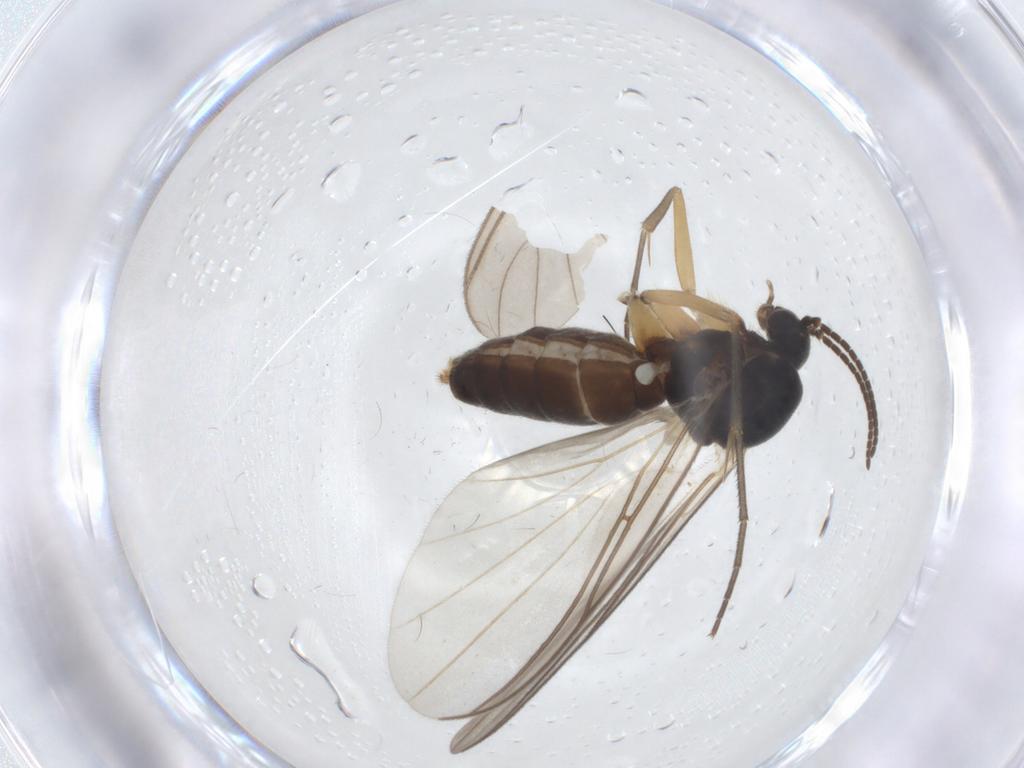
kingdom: Animalia
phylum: Arthropoda
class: Insecta
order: Diptera
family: Mycetophilidae
